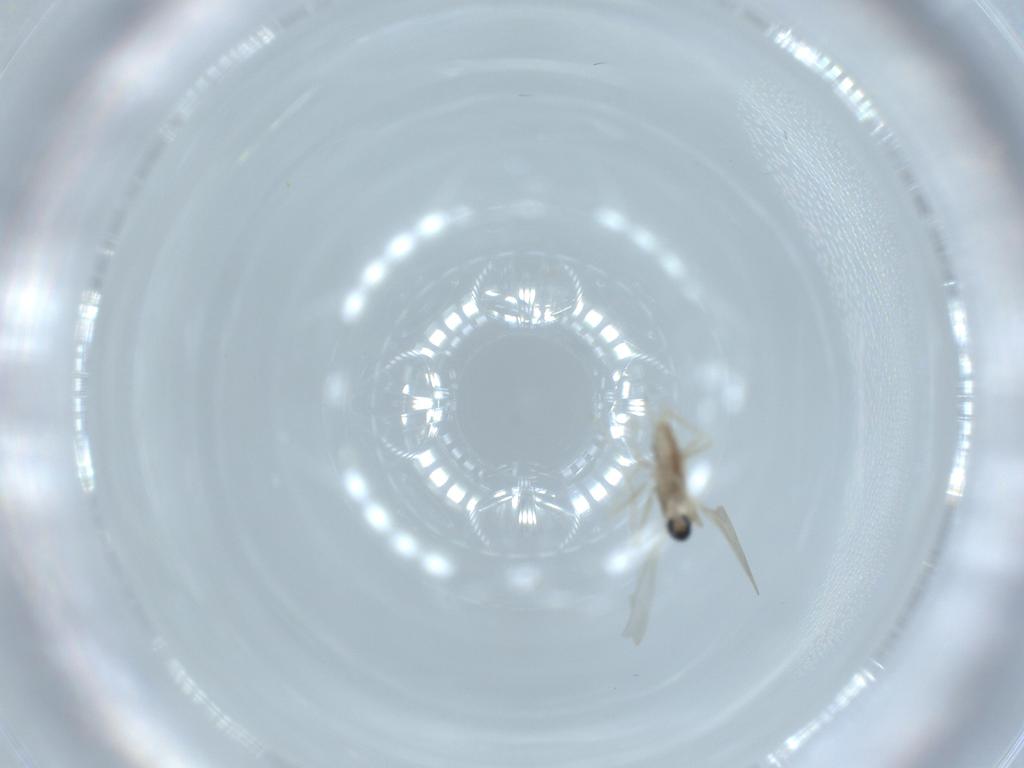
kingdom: Animalia
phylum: Arthropoda
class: Insecta
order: Diptera
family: Cecidomyiidae
